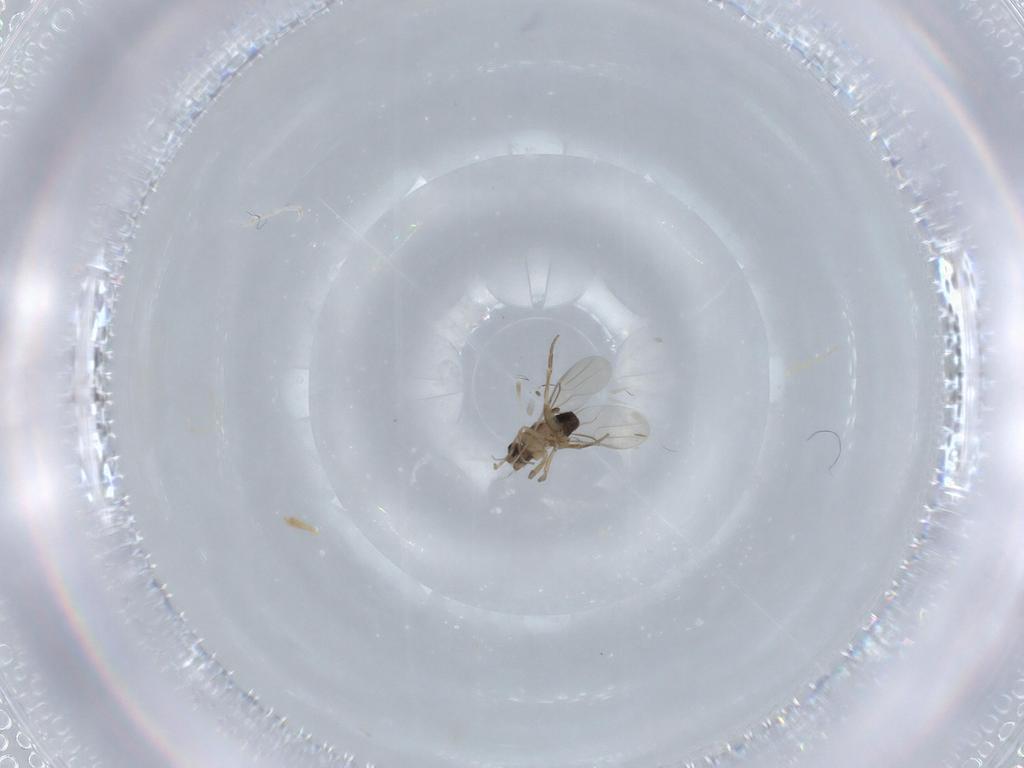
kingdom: Animalia
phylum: Arthropoda
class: Insecta
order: Diptera
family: Phoridae
